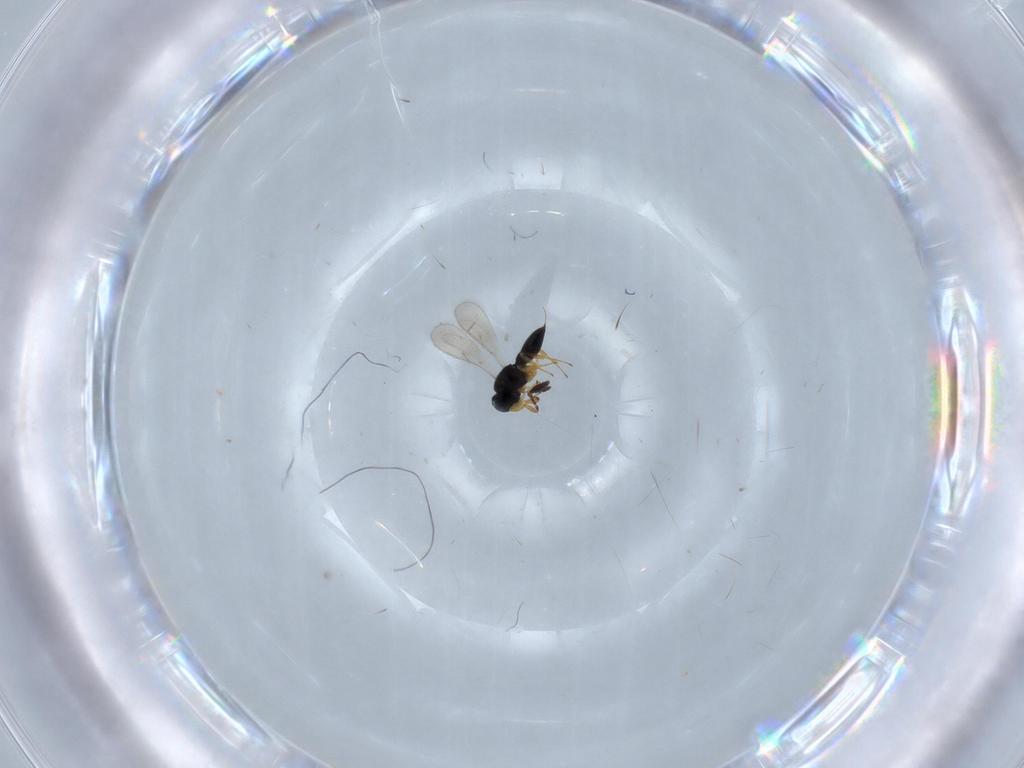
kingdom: Animalia
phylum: Arthropoda
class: Insecta
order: Hymenoptera
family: Scelionidae
